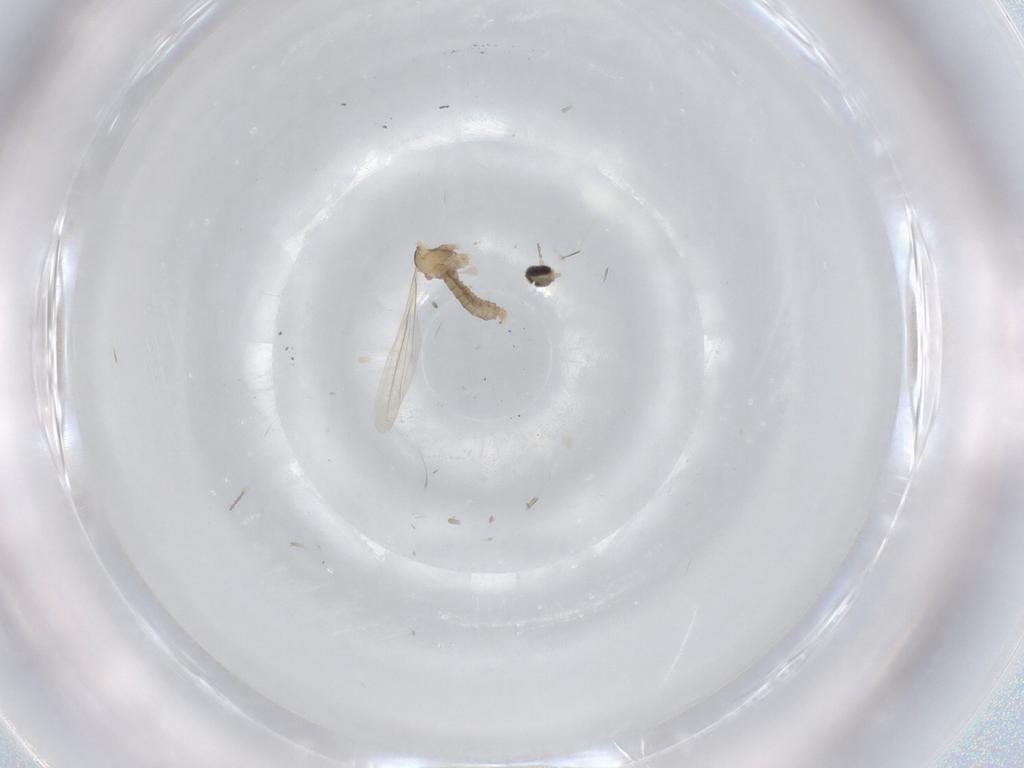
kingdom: Animalia
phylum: Arthropoda
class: Insecta
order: Diptera
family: Cecidomyiidae
